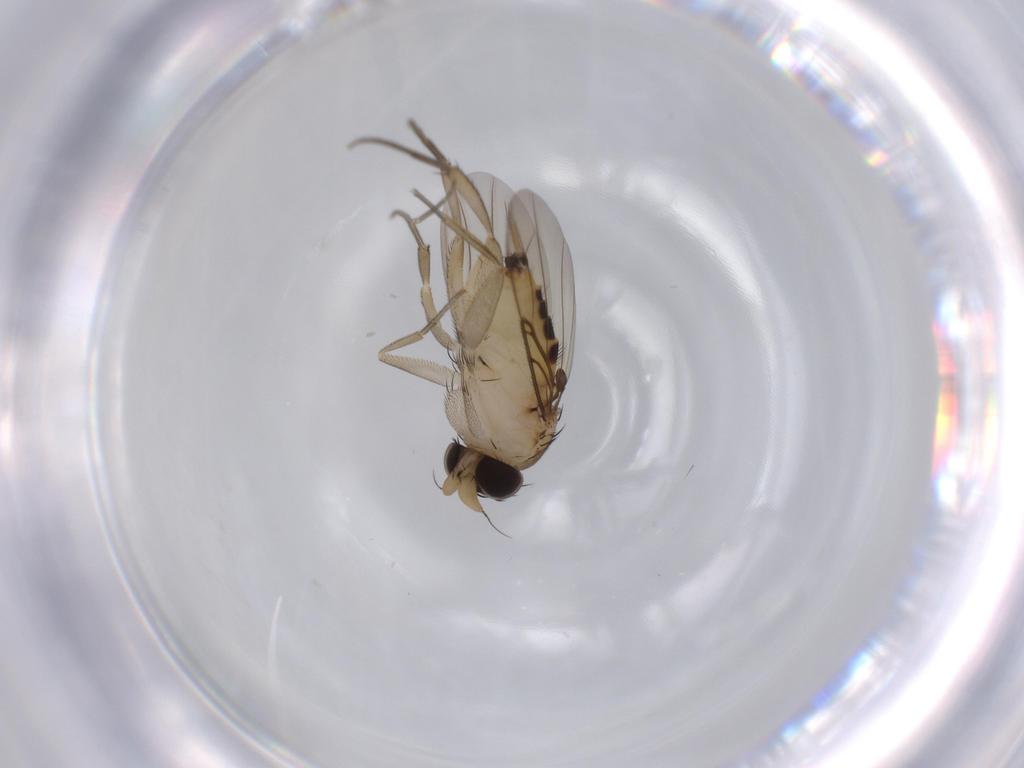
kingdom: Animalia
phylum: Arthropoda
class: Insecta
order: Diptera
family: Phoridae
